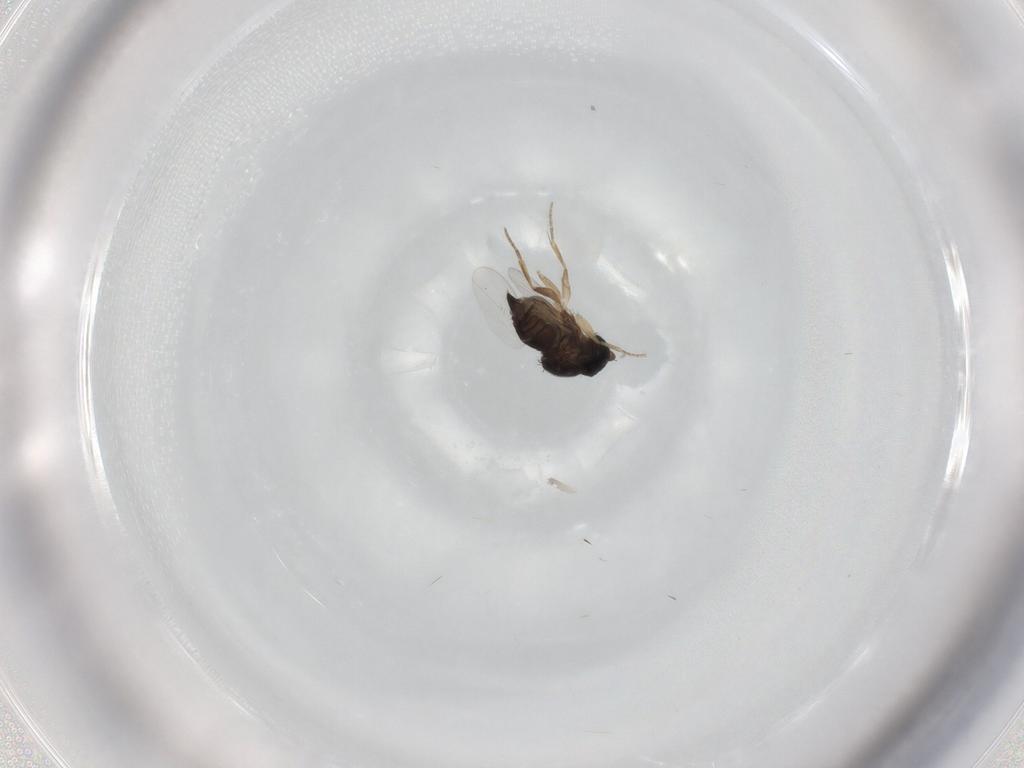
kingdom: Animalia
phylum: Arthropoda
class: Insecta
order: Diptera
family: Phoridae
